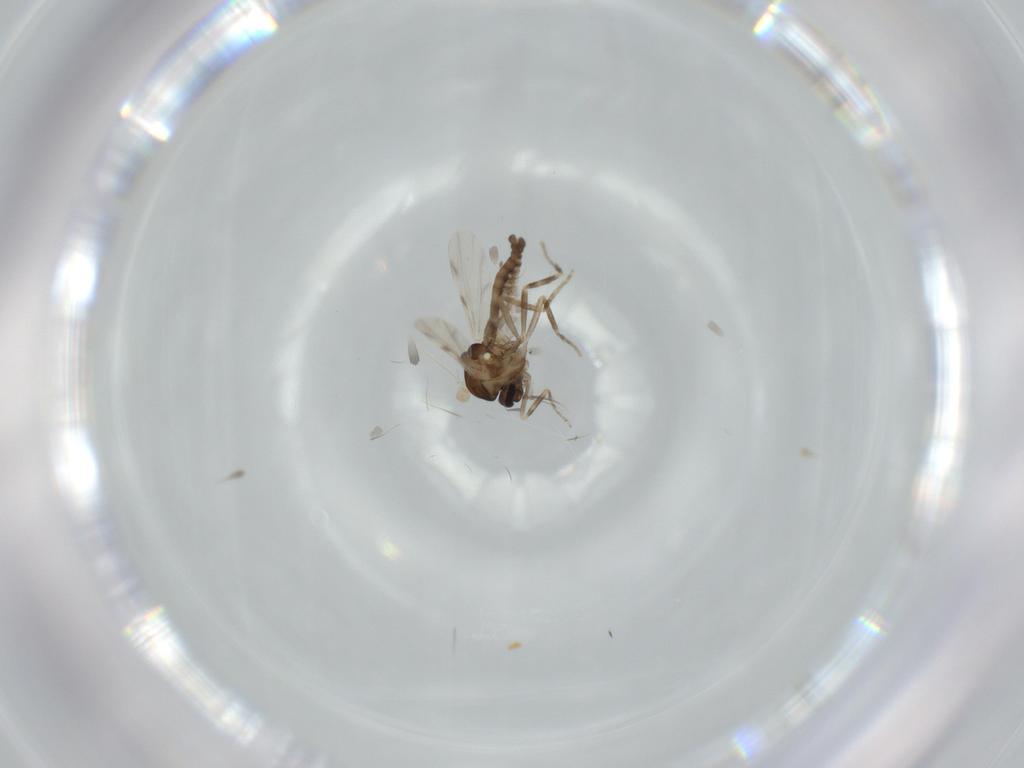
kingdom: Animalia
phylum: Arthropoda
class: Insecta
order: Diptera
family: Ceratopogonidae
